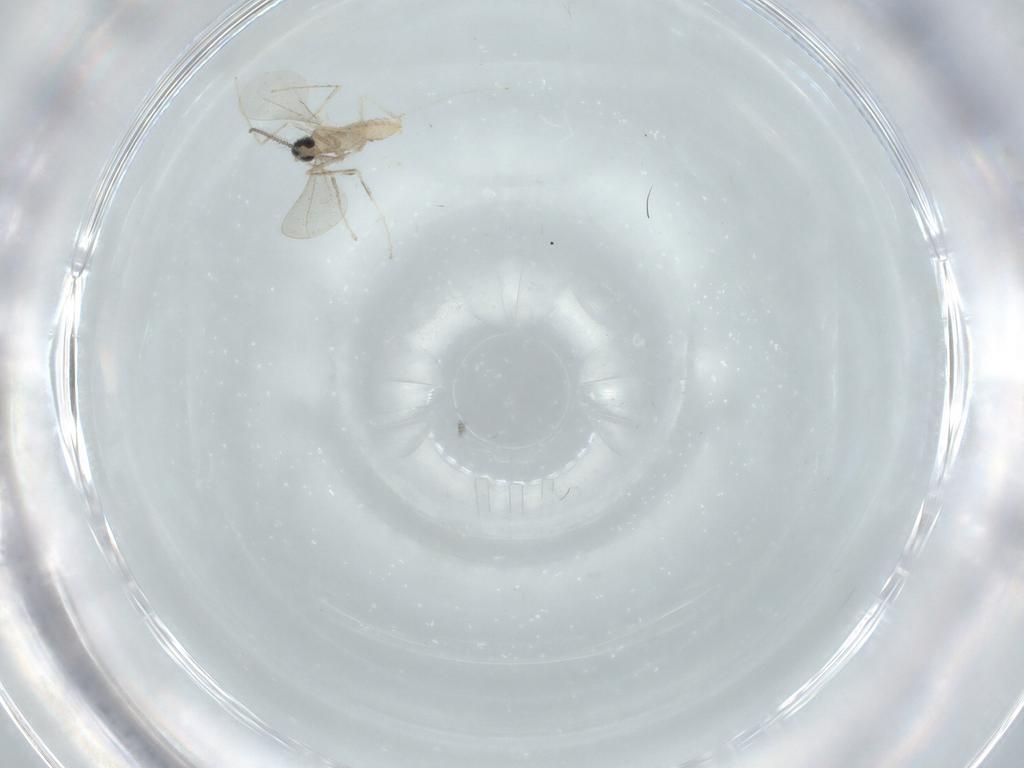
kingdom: Animalia
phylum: Arthropoda
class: Insecta
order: Diptera
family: Cecidomyiidae
